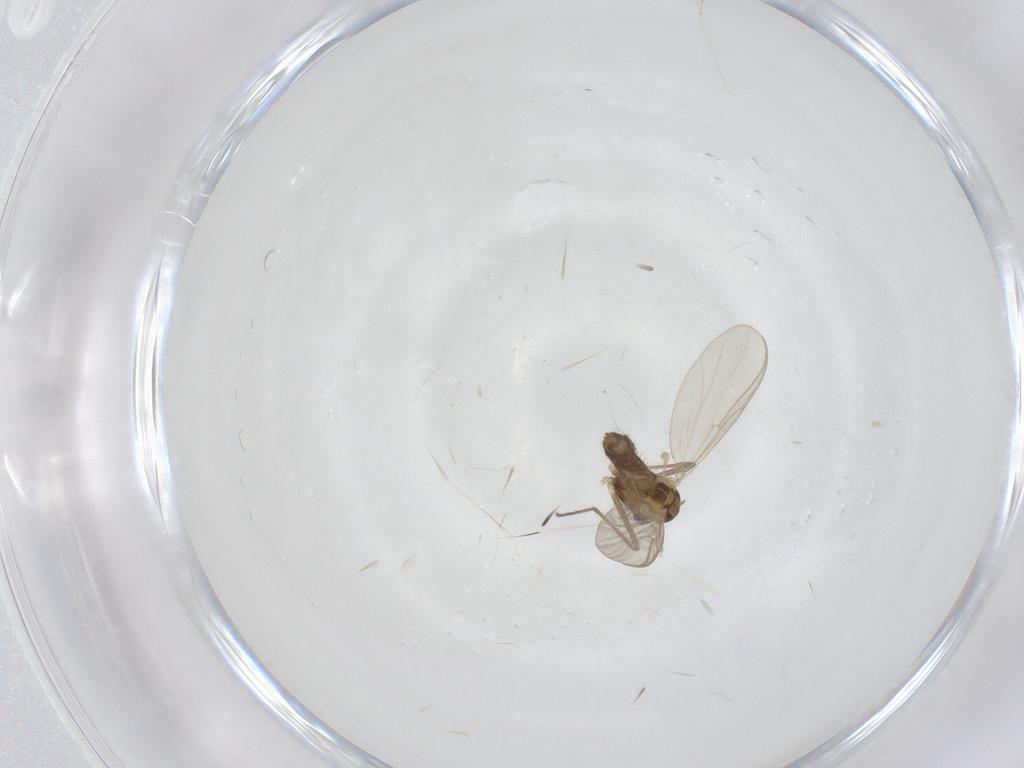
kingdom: Animalia
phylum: Arthropoda
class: Insecta
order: Diptera
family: Chironomidae
